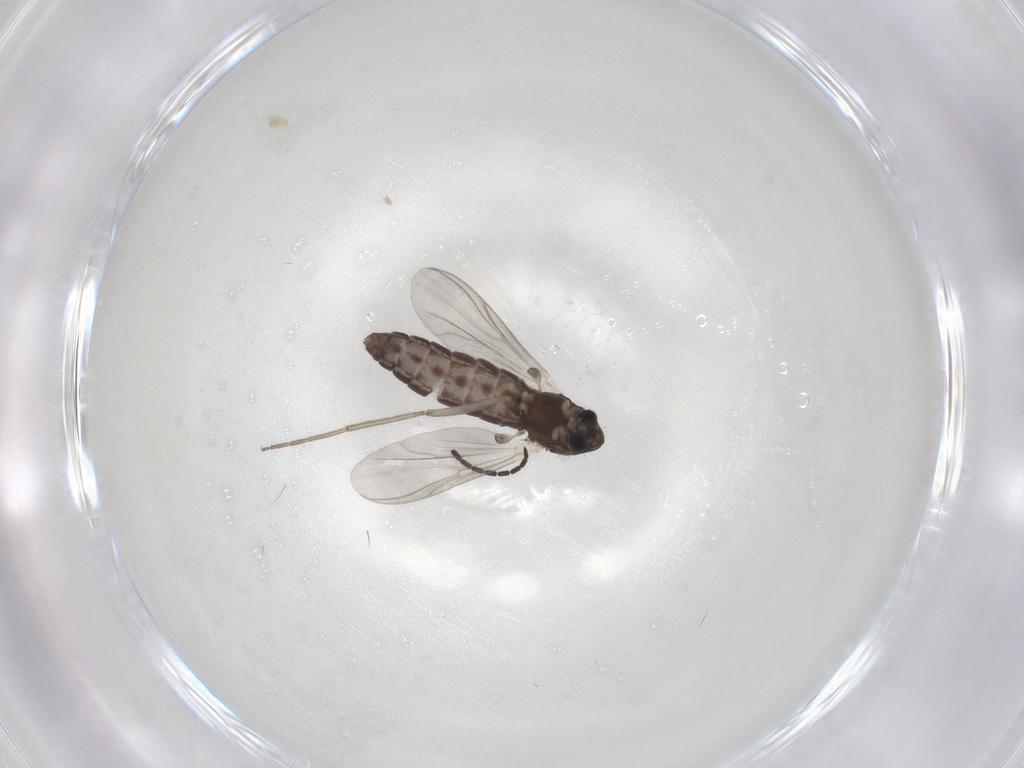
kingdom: Animalia
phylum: Arthropoda
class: Insecta
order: Diptera
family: Chironomidae
